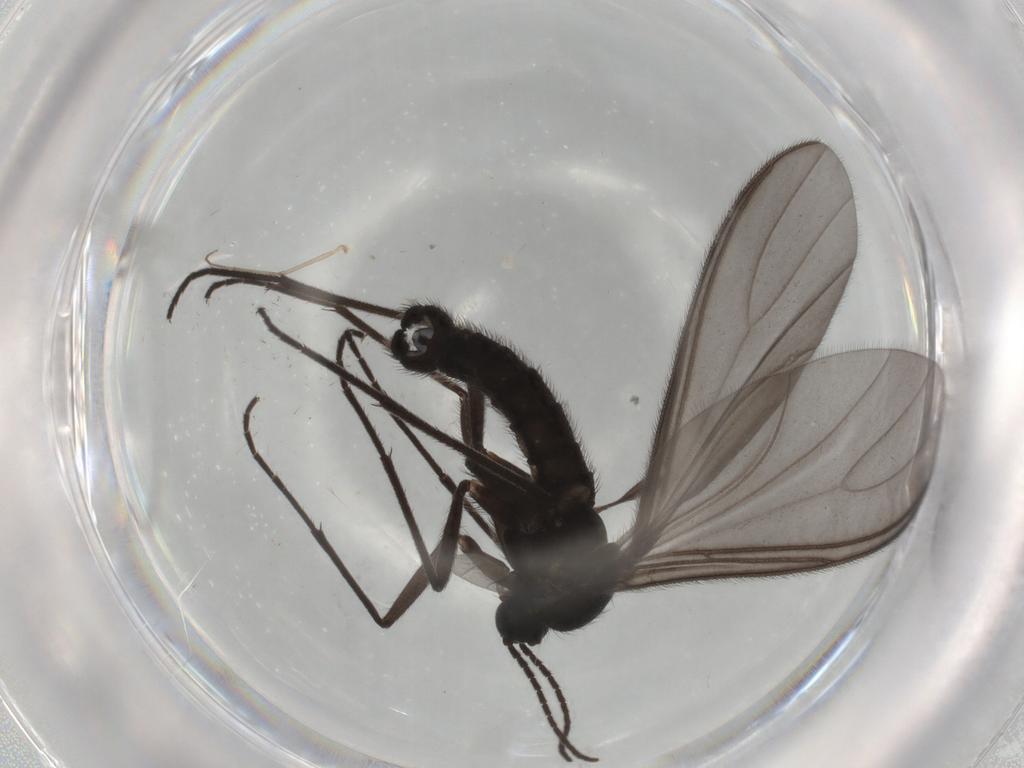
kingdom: Animalia
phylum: Arthropoda
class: Insecta
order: Diptera
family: Sciaridae
